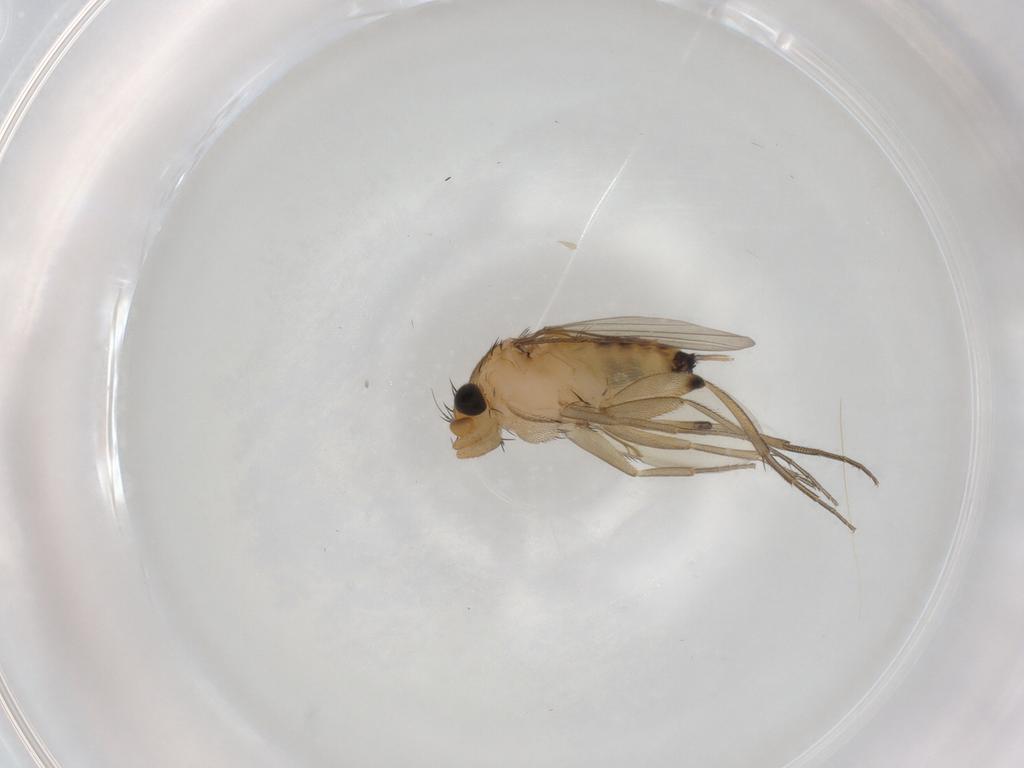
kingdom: Animalia
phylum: Arthropoda
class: Insecta
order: Diptera
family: Phoridae
